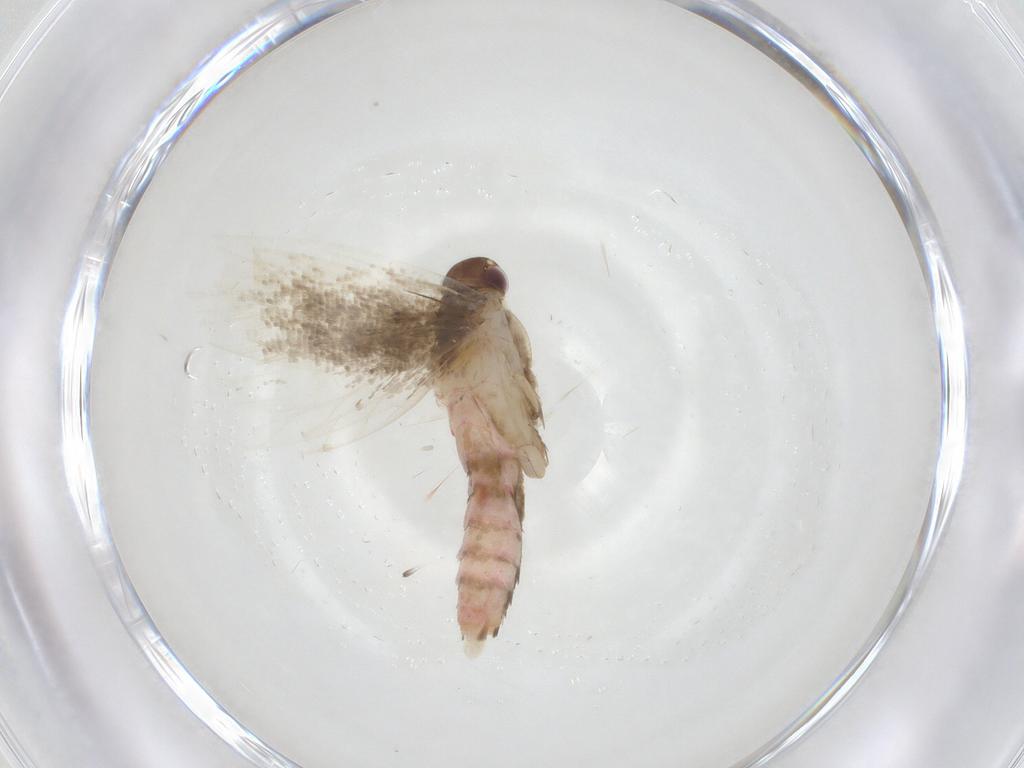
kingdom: Animalia
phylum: Arthropoda
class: Insecta
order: Lepidoptera
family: Gelechiidae
